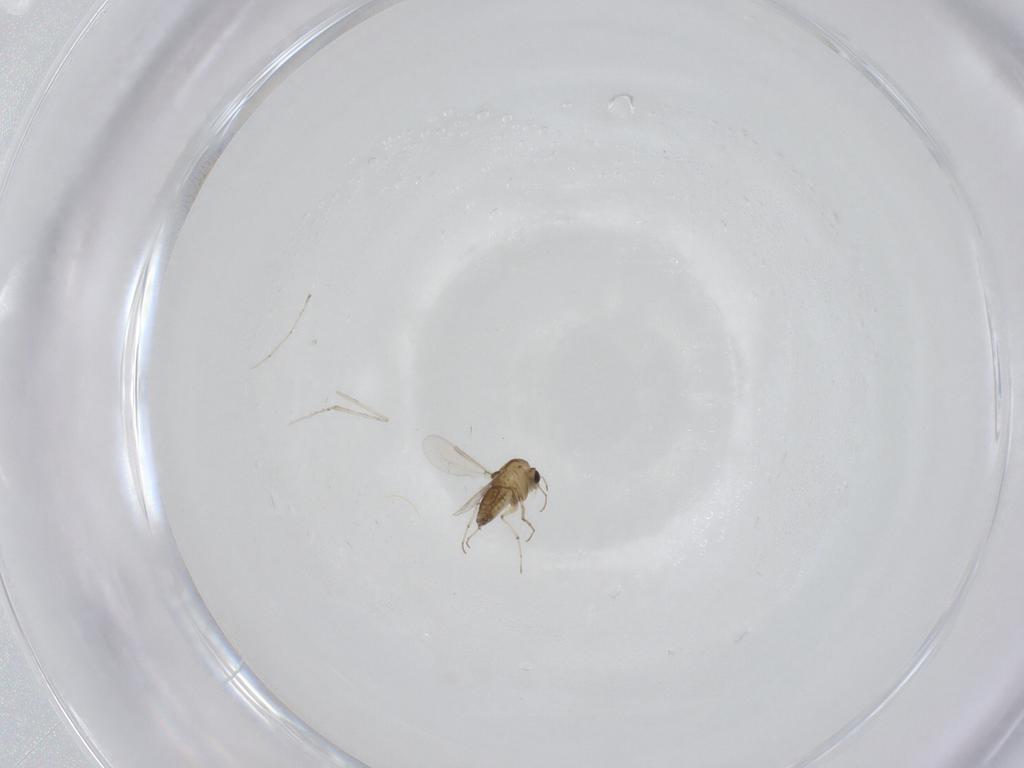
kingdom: Animalia
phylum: Arthropoda
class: Insecta
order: Diptera
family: Chironomidae
